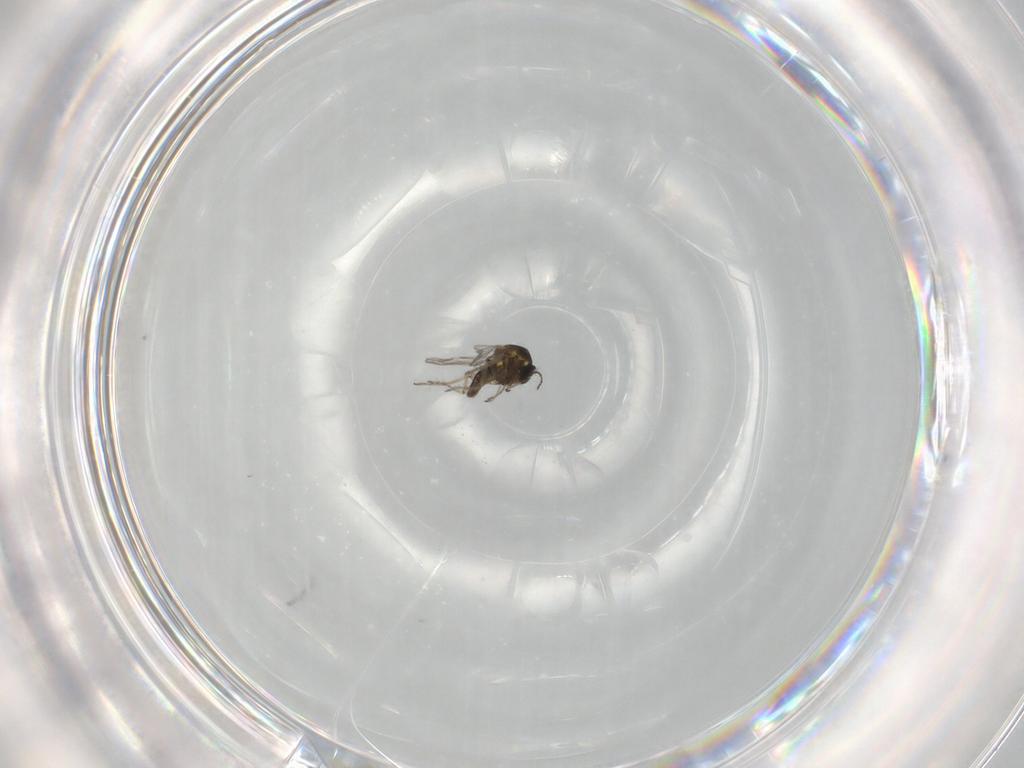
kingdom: Animalia
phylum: Arthropoda
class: Insecta
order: Diptera
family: Ceratopogonidae
